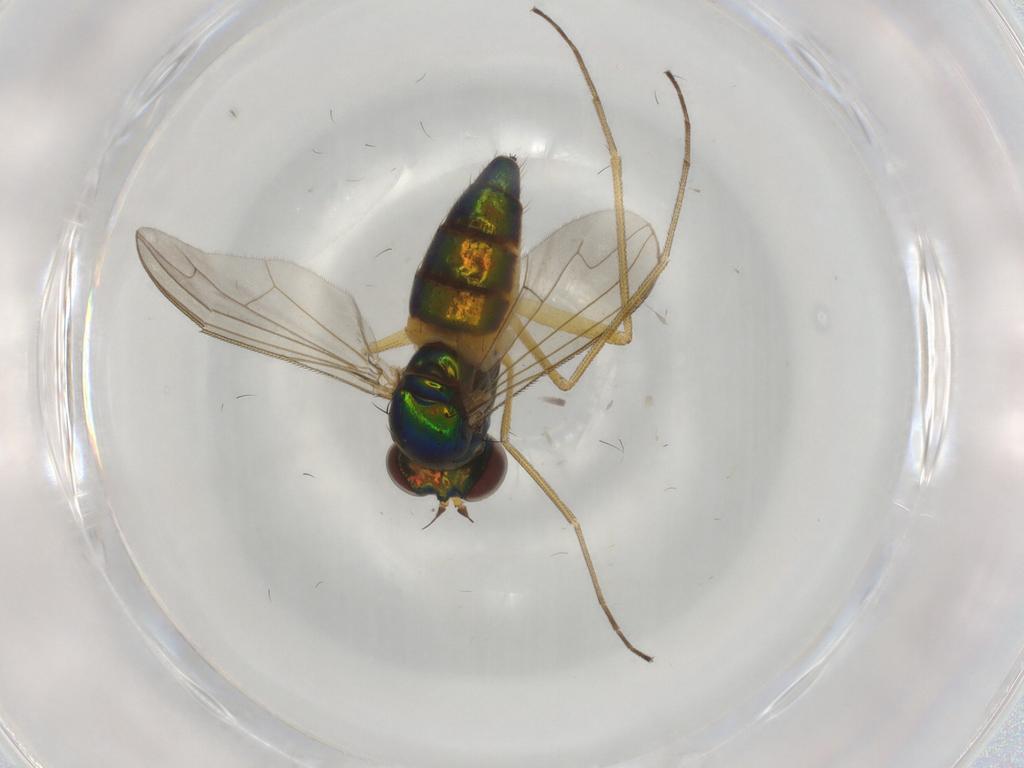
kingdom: Animalia
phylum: Arthropoda
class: Insecta
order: Diptera
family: Dolichopodidae
